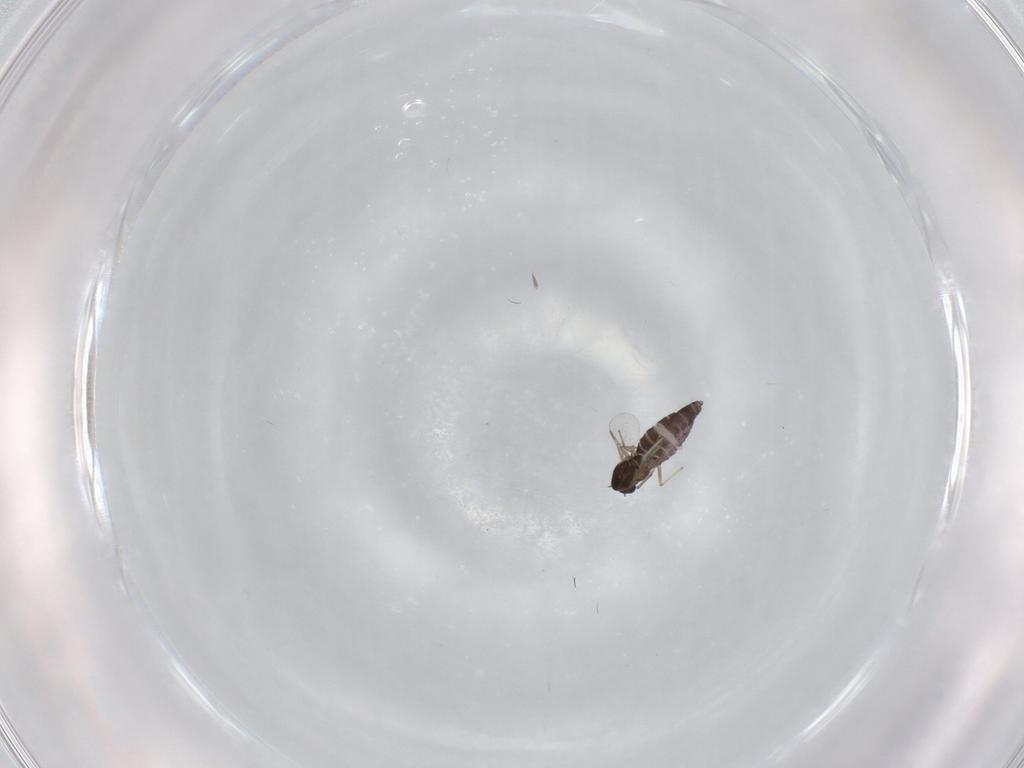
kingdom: Animalia
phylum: Arthropoda
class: Insecta
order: Diptera
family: Chironomidae
